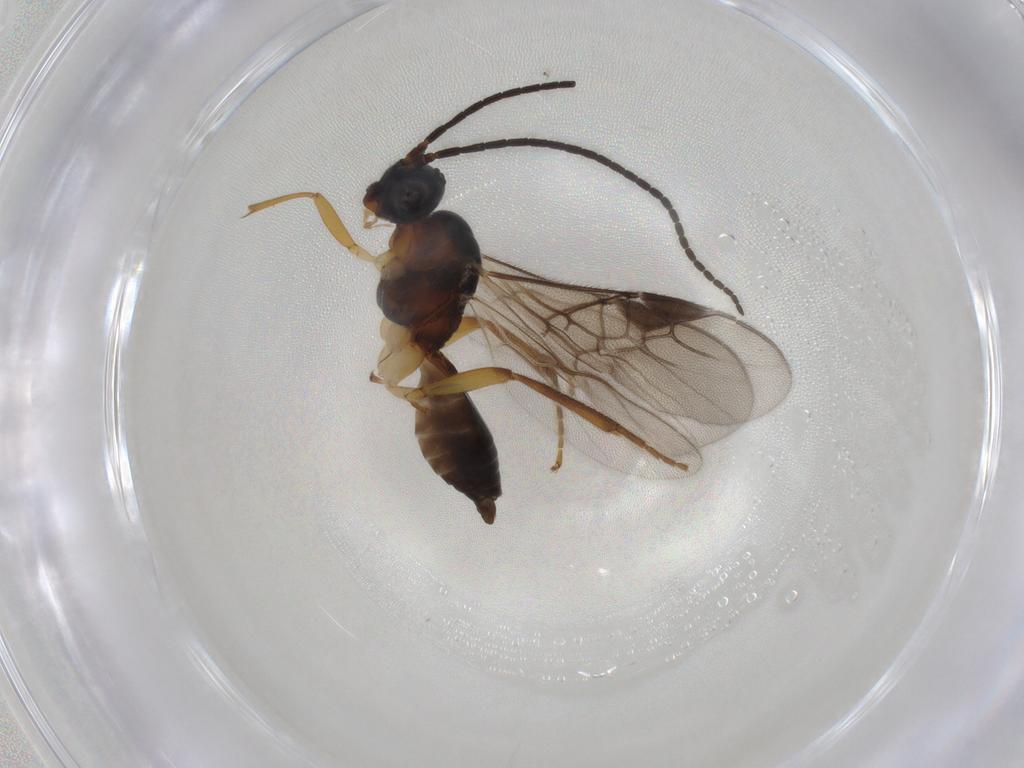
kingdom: Animalia
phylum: Arthropoda
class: Insecta
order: Hymenoptera
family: Braconidae
